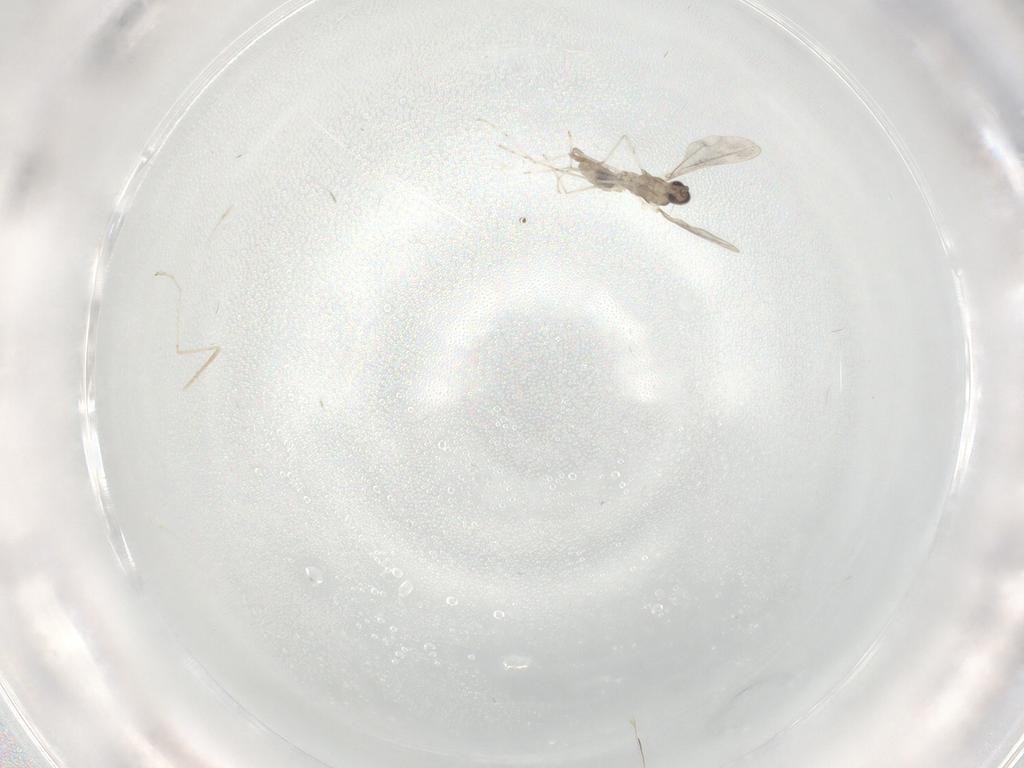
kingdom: Animalia
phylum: Arthropoda
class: Insecta
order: Diptera
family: Cecidomyiidae
